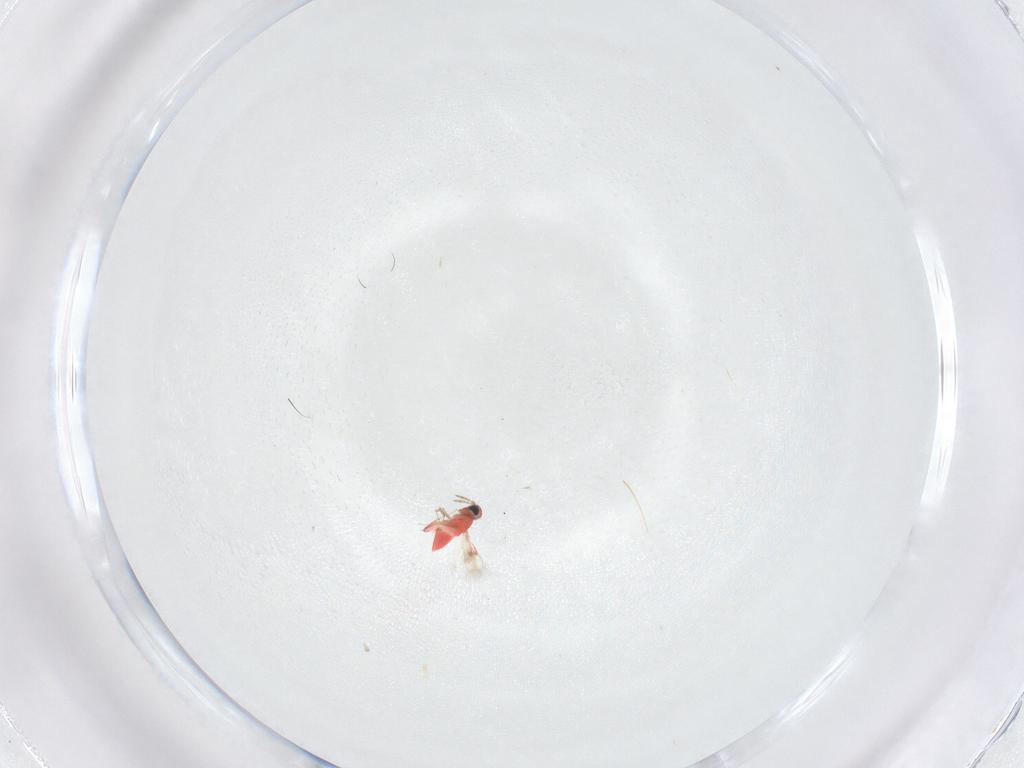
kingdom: Animalia
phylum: Arthropoda
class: Insecta
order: Hymenoptera
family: Trichogrammatidae
